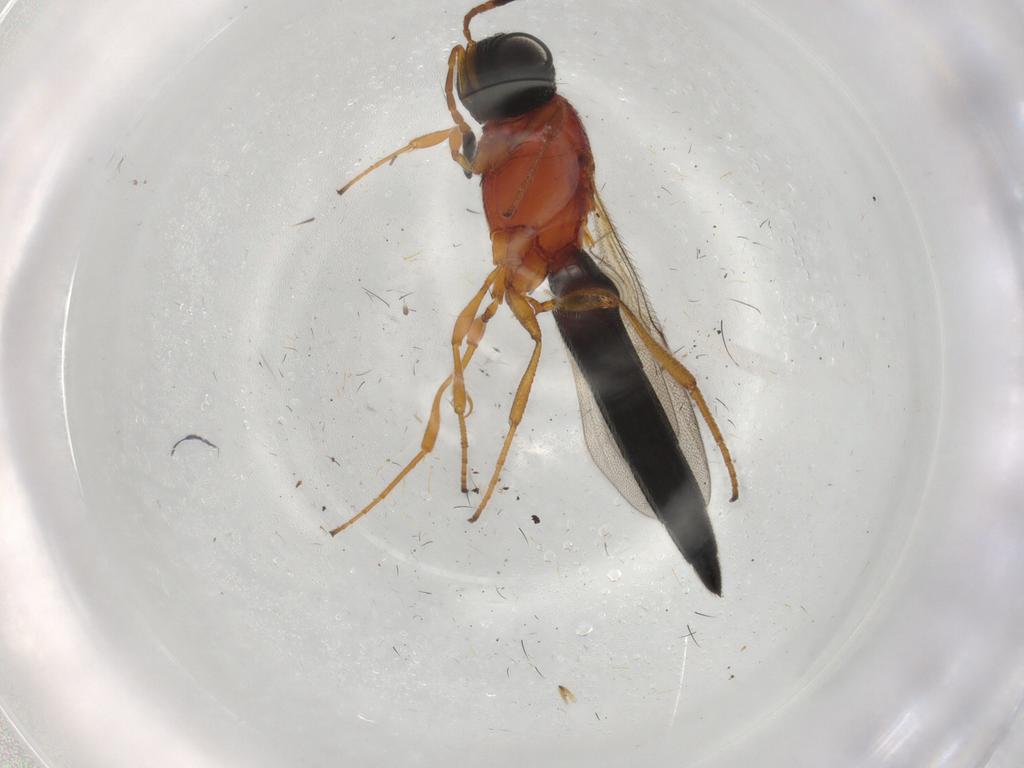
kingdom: Animalia
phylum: Arthropoda
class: Insecta
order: Hymenoptera
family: Scelionidae
